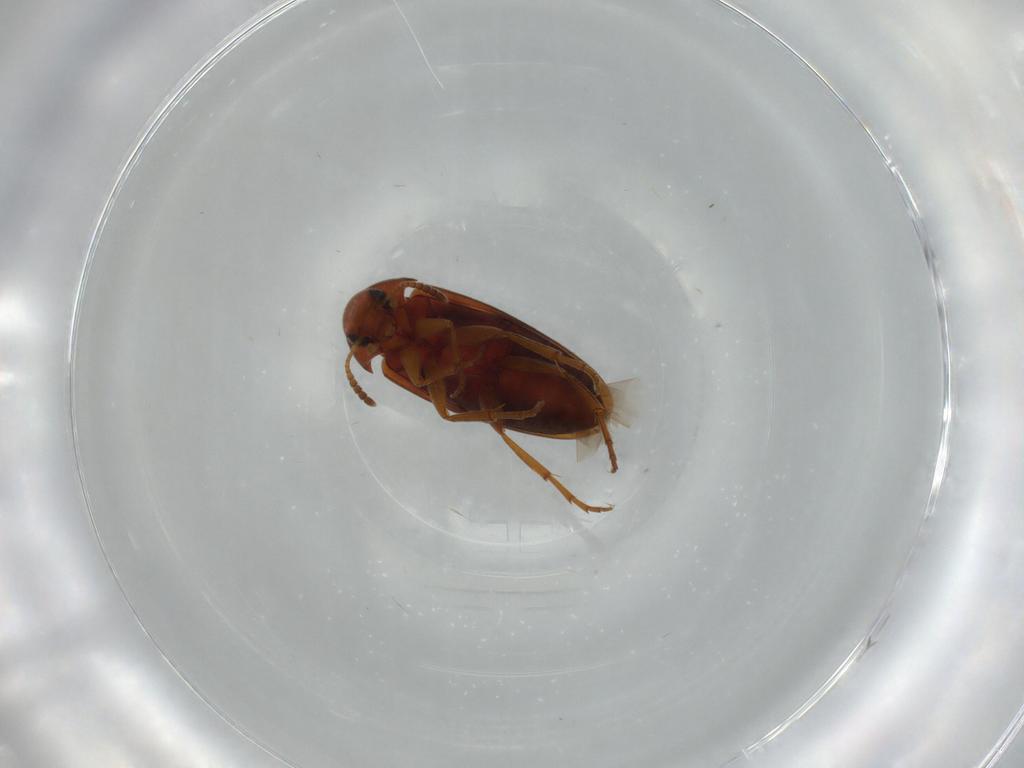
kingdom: Animalia
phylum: Arthropoda
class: Insecta
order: Coleoptera
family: Scraptiidae
